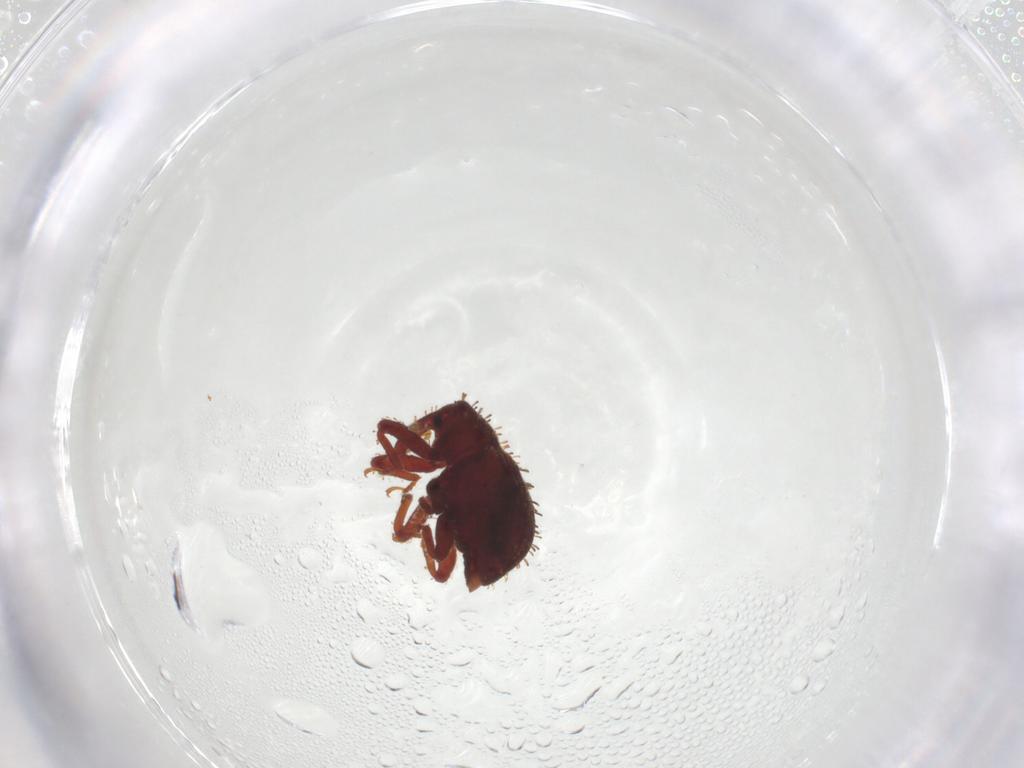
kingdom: Animalia
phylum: Arthropoda
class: Insecta
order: Coleoptera
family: Curculionidae
